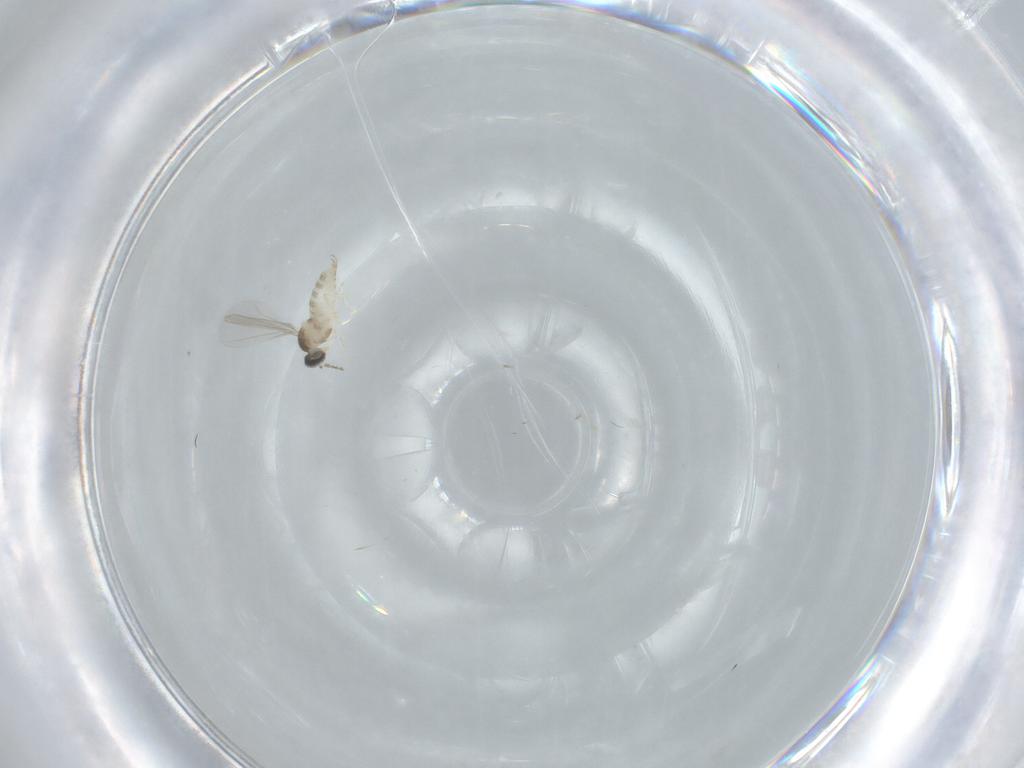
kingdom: Animalia
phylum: Arthropoda
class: Insecta
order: Diptera
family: Cecidomyiidae
